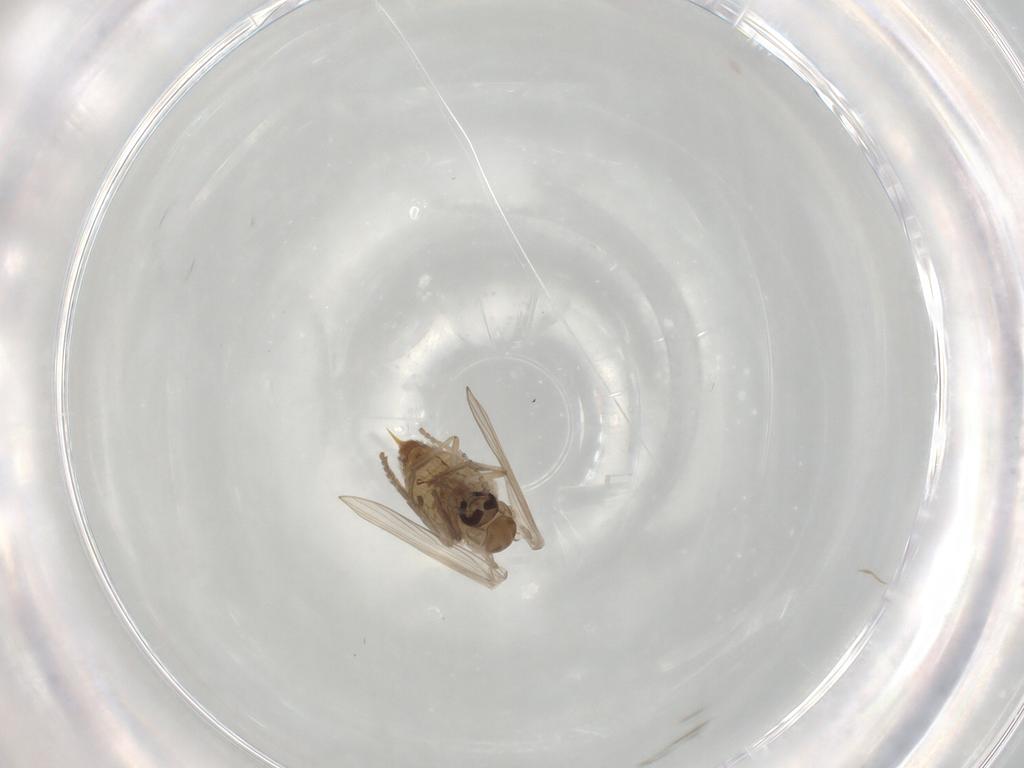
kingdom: Animalia
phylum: Arthropoda
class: Insecta
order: Diptera
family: Psychodidae
